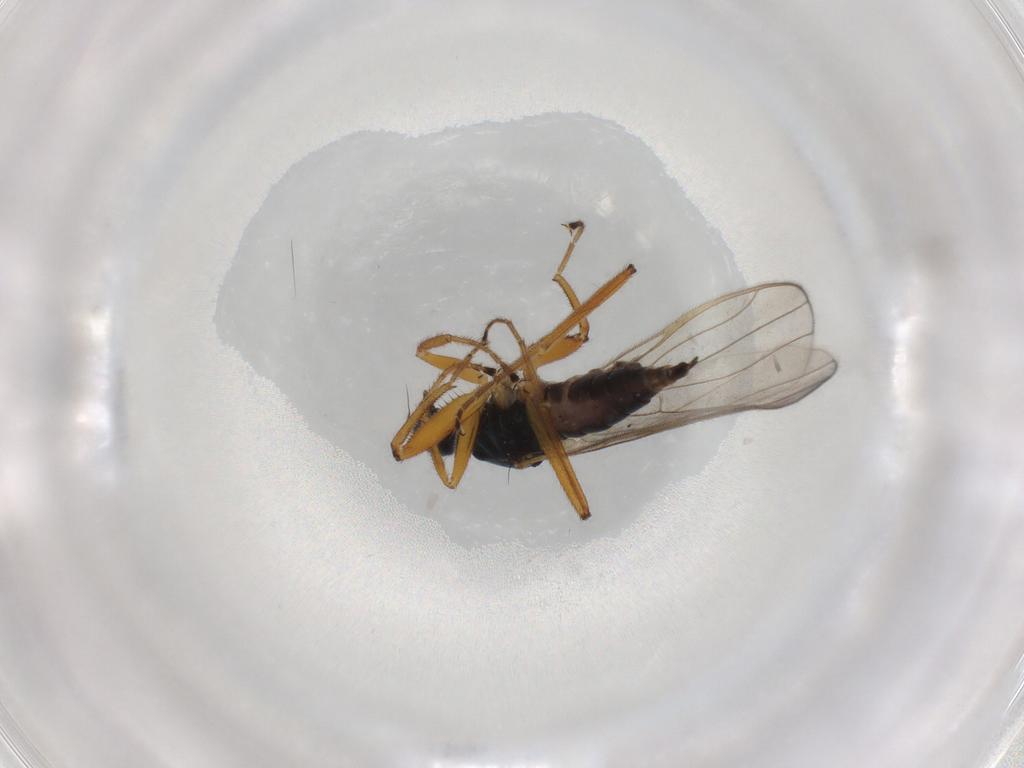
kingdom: Animalia
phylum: Arthropoda
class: Insecta
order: Diptera
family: Hybotidae
